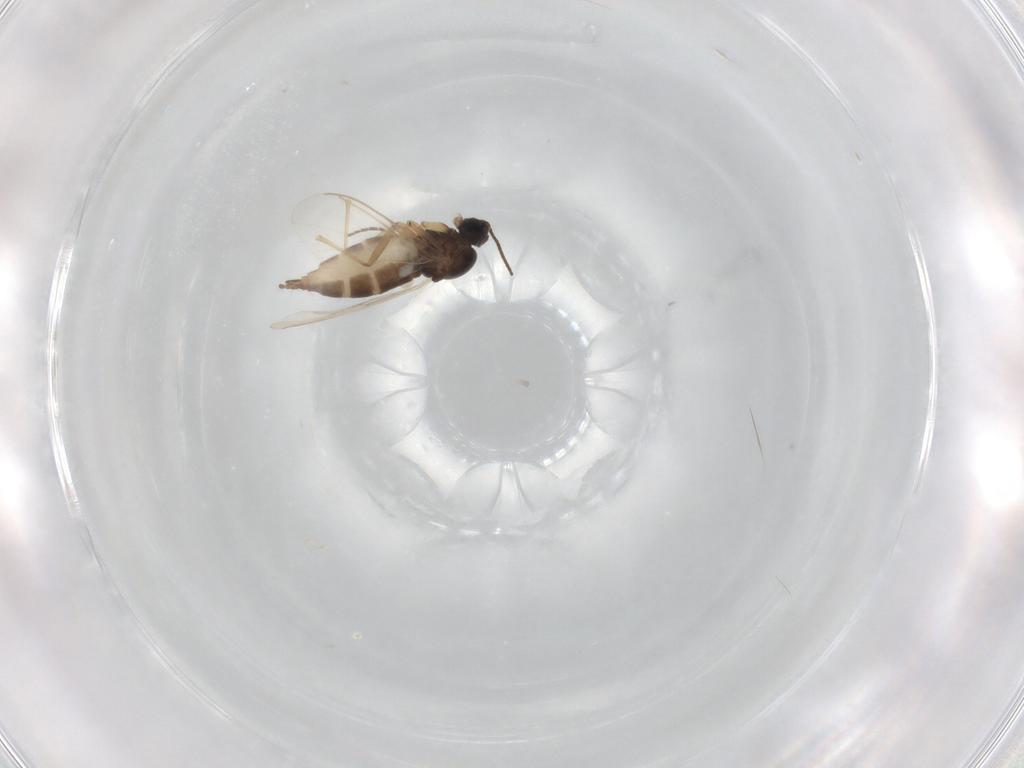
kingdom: Animalia
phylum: Arthropoda
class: Insecta
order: Diptera
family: Sciaridae
